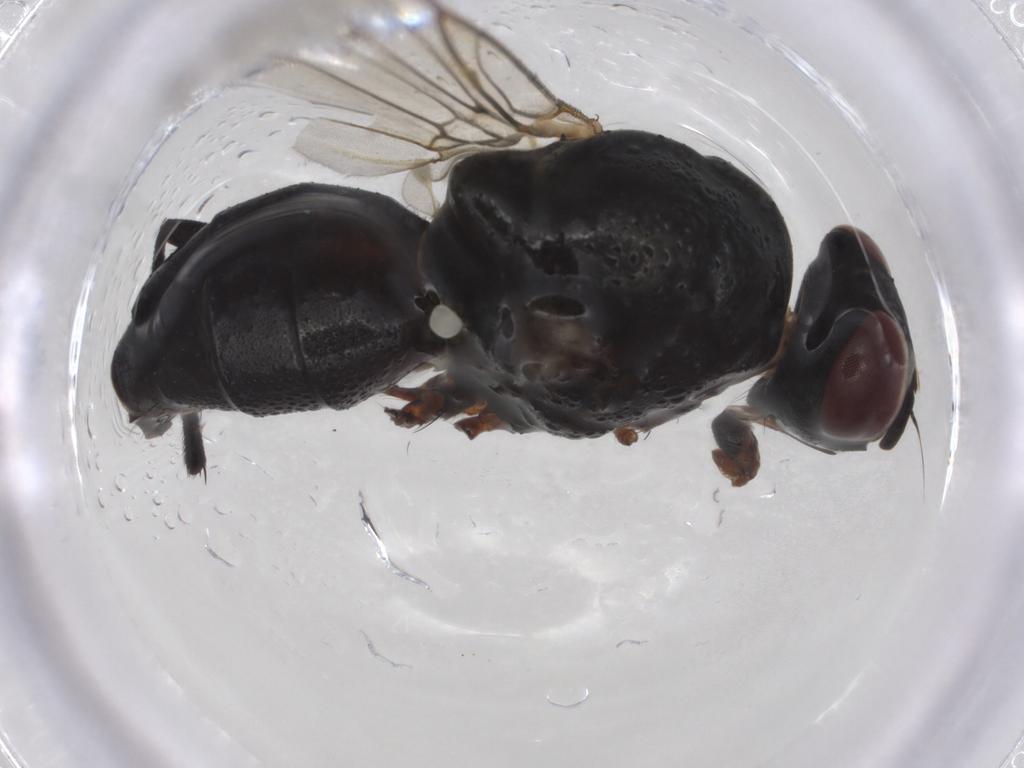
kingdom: Animalia
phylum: Arthropoda
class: Insecta
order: Diptera
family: Anthomyiidae
